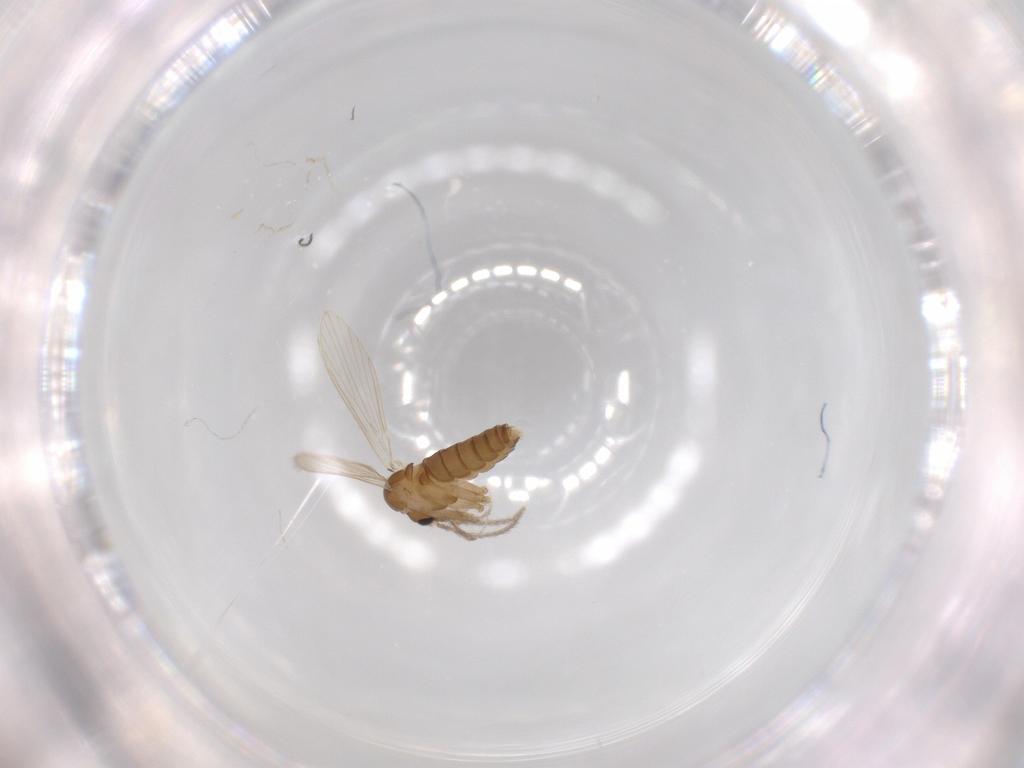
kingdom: Animalia
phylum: Arthropoda
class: Insecta
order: Diptera
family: Psychodidae
